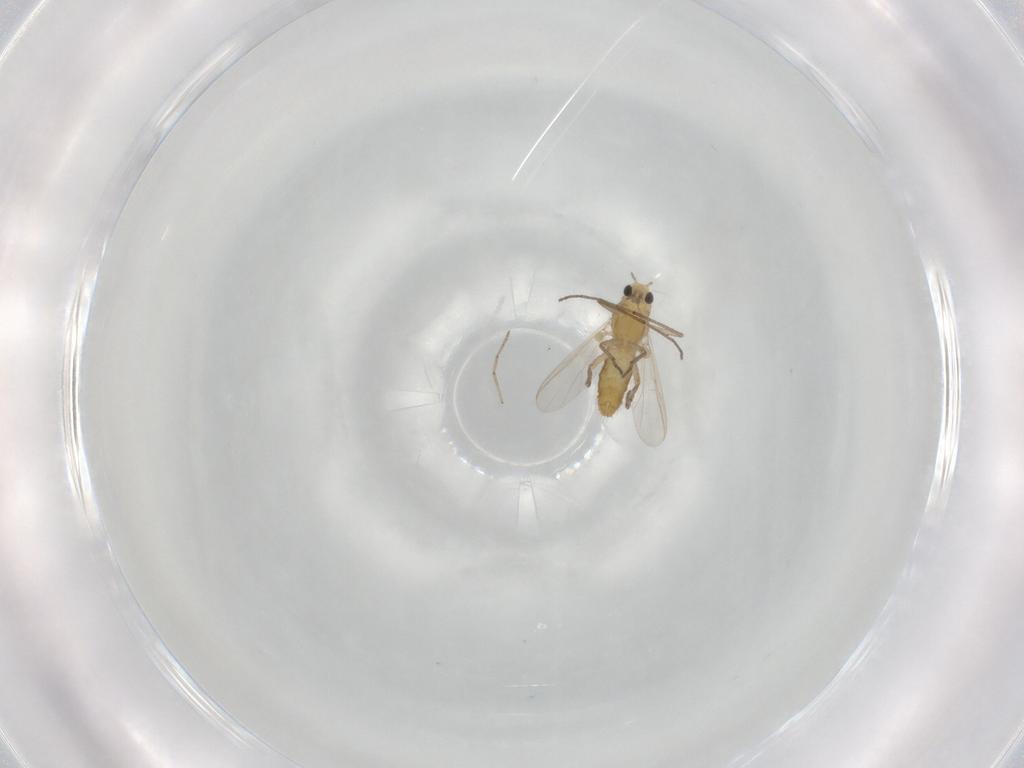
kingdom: Animalia
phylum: Arthropoda
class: Insecta
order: Diptera
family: Chironomidae
